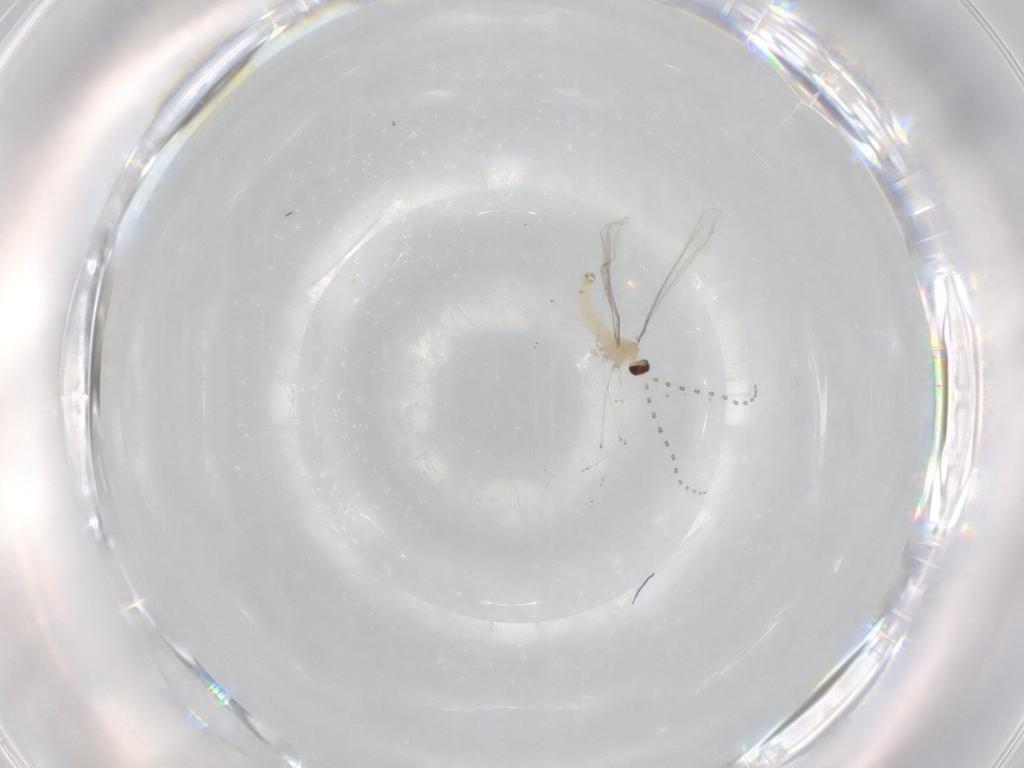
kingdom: Animalia
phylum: Arthropoda
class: Insecta
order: Diptera
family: Cecidomyiidae
